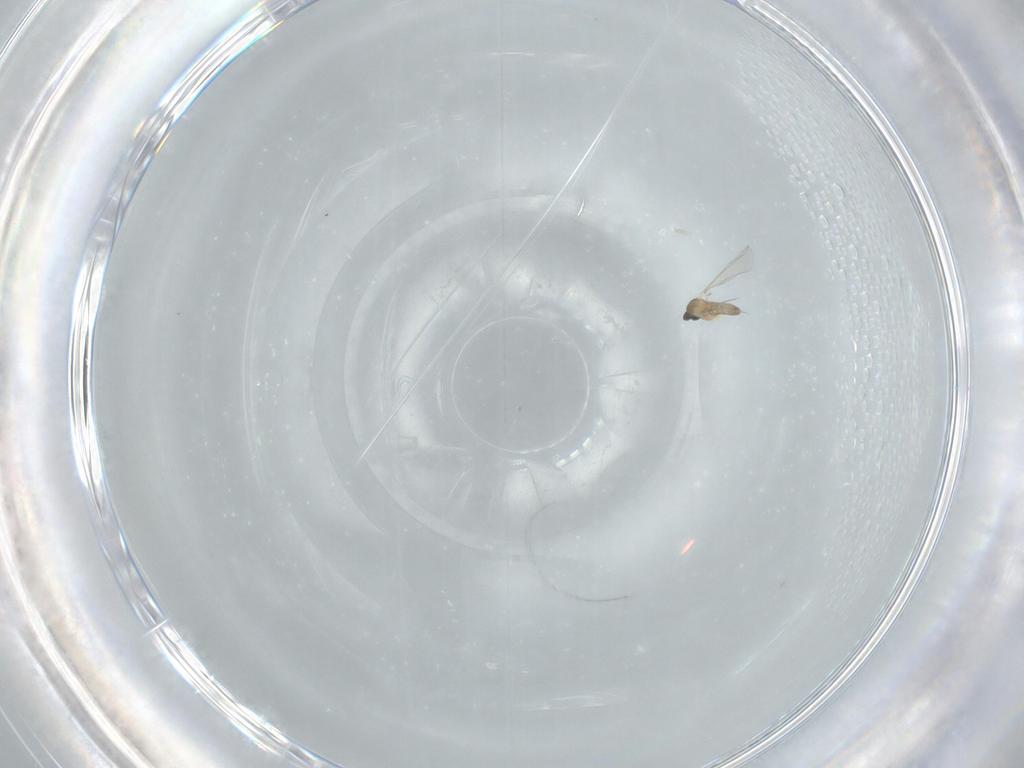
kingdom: Animalia
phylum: Arthropoda
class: Insecta
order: Diptera
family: Cecidomyiidae
